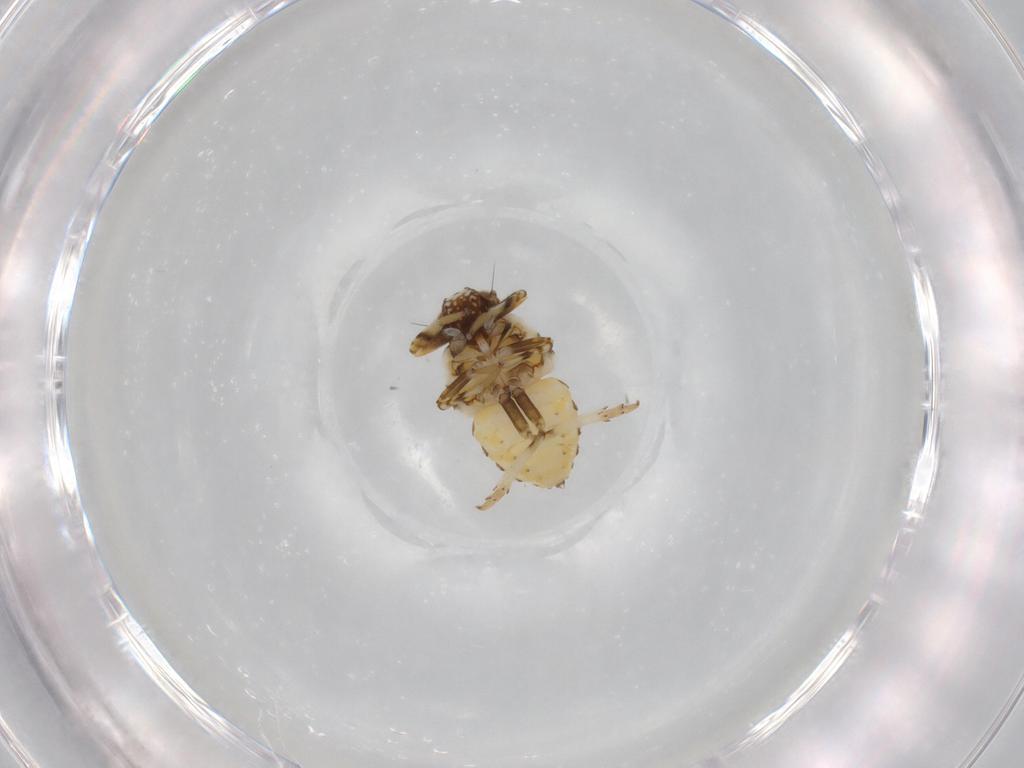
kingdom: Animalia
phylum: Arthropoda
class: Insecta
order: Hemiptera
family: Issidae
